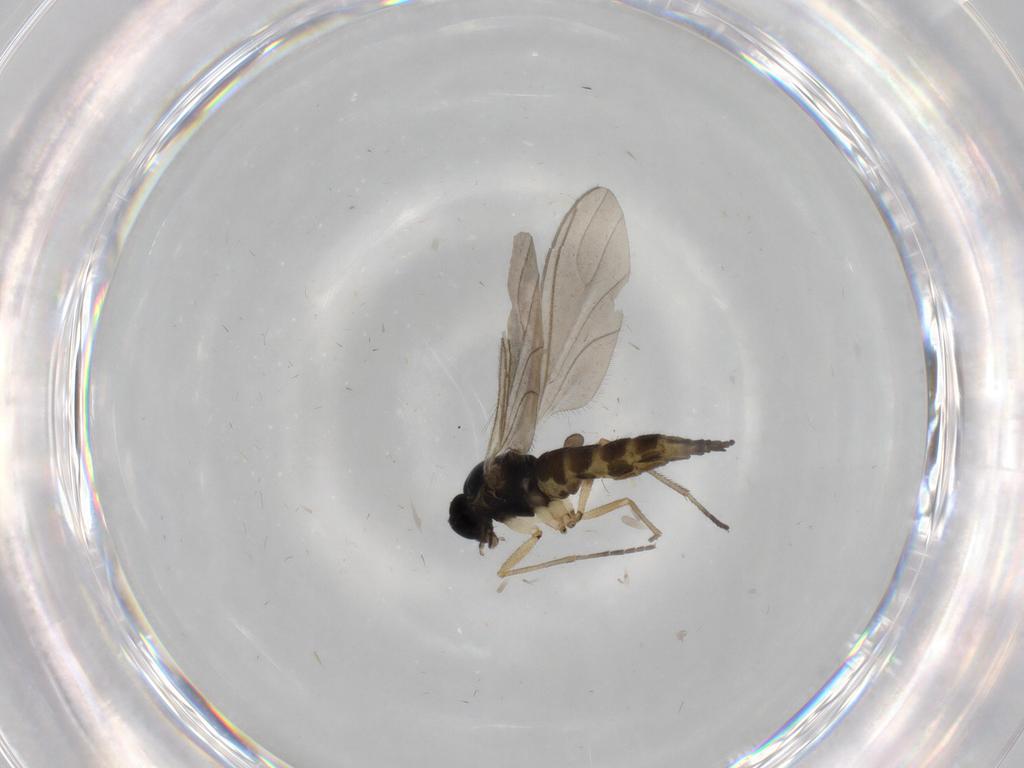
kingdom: Animalia
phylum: Arthropoda
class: Insecta
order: Diptera
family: Sciaridae
